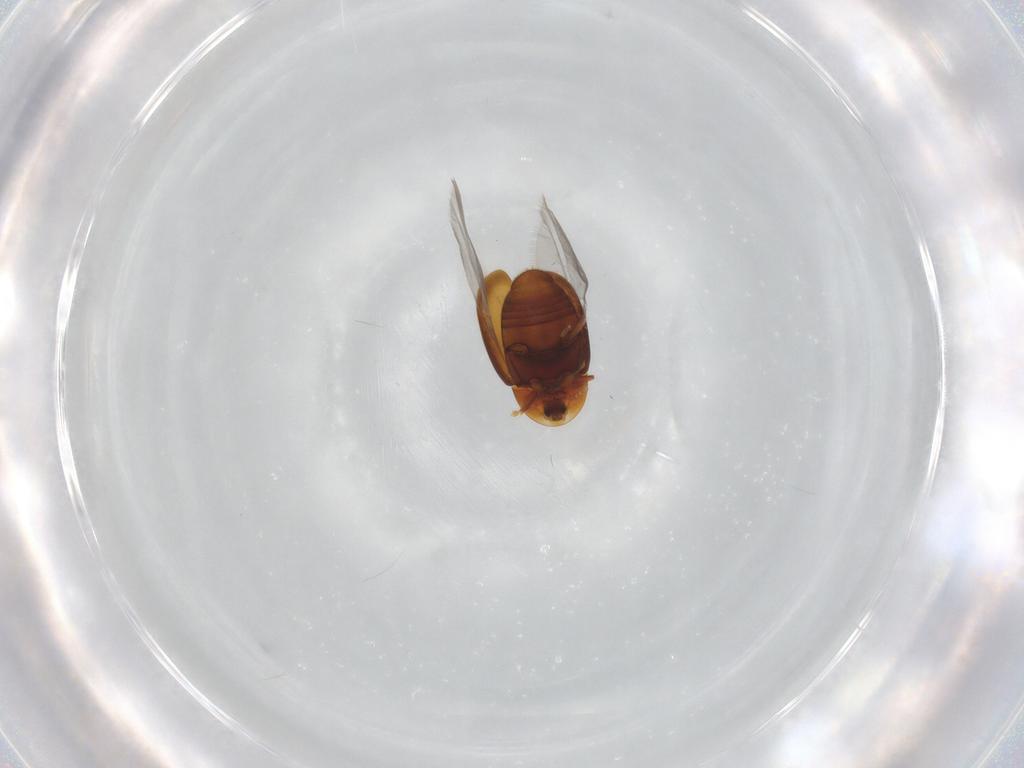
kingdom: Animalia
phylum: Arthropoda
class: Insecta
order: Coleoptera
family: Corylophidae
